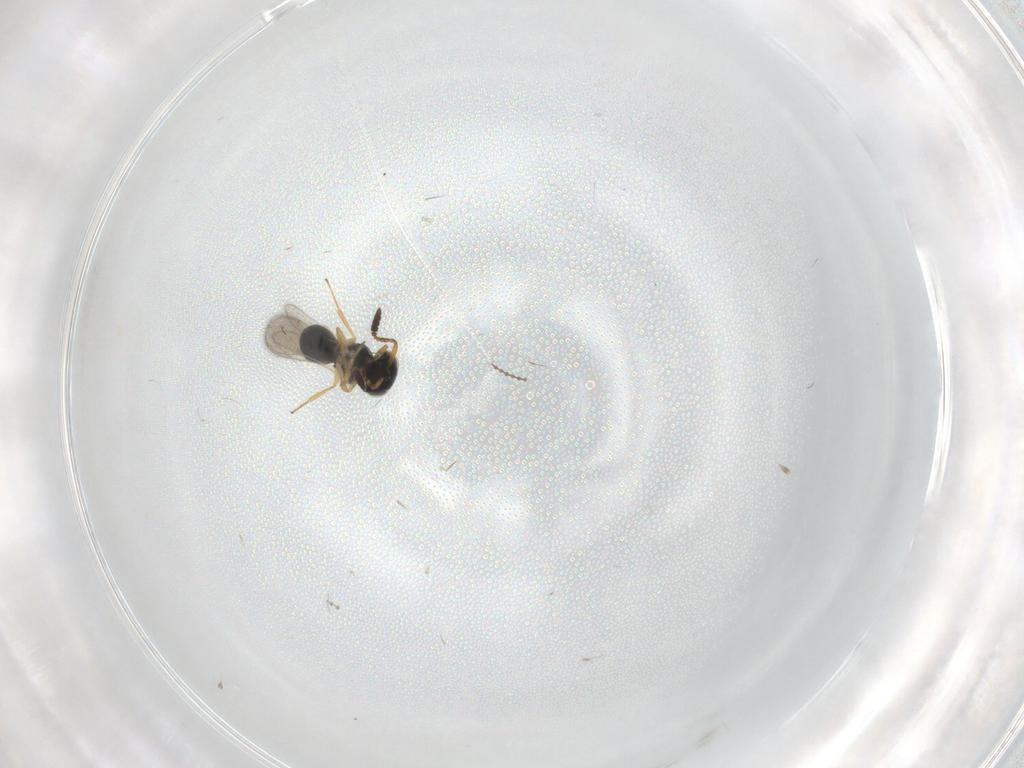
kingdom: Animalia
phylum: Arthropoda
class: Insecta
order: Hymenoptera
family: Scelionidae
